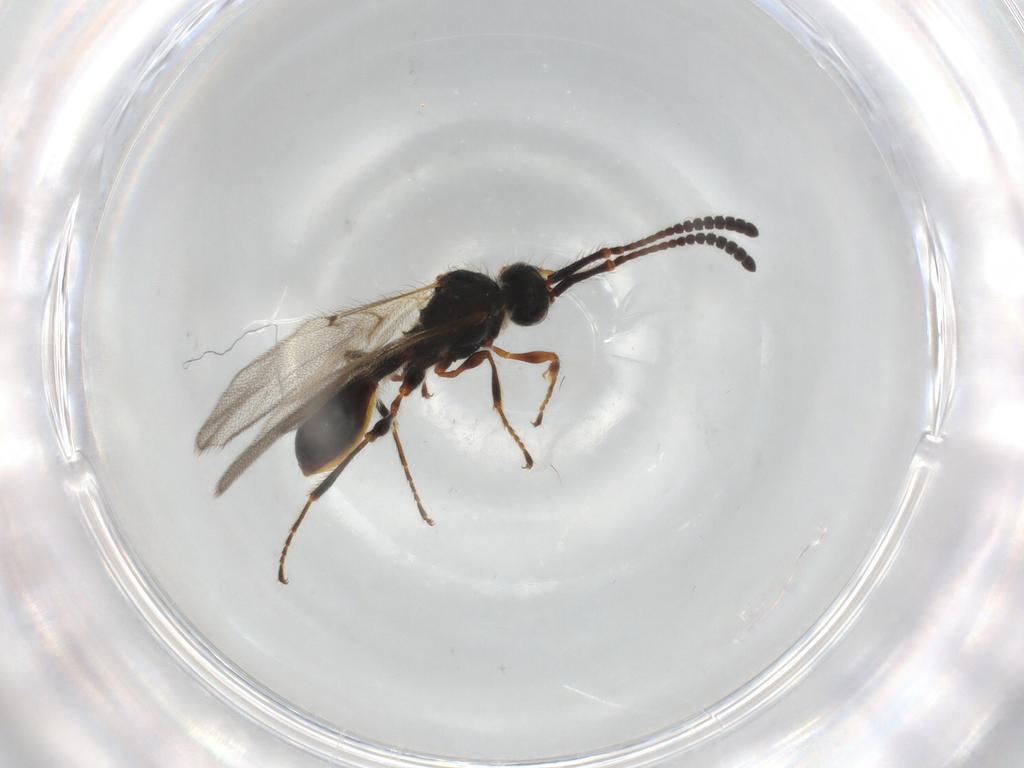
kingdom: Animalia
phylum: Arthropoda
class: Insecta
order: Hymenoptera
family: Diapriidae
